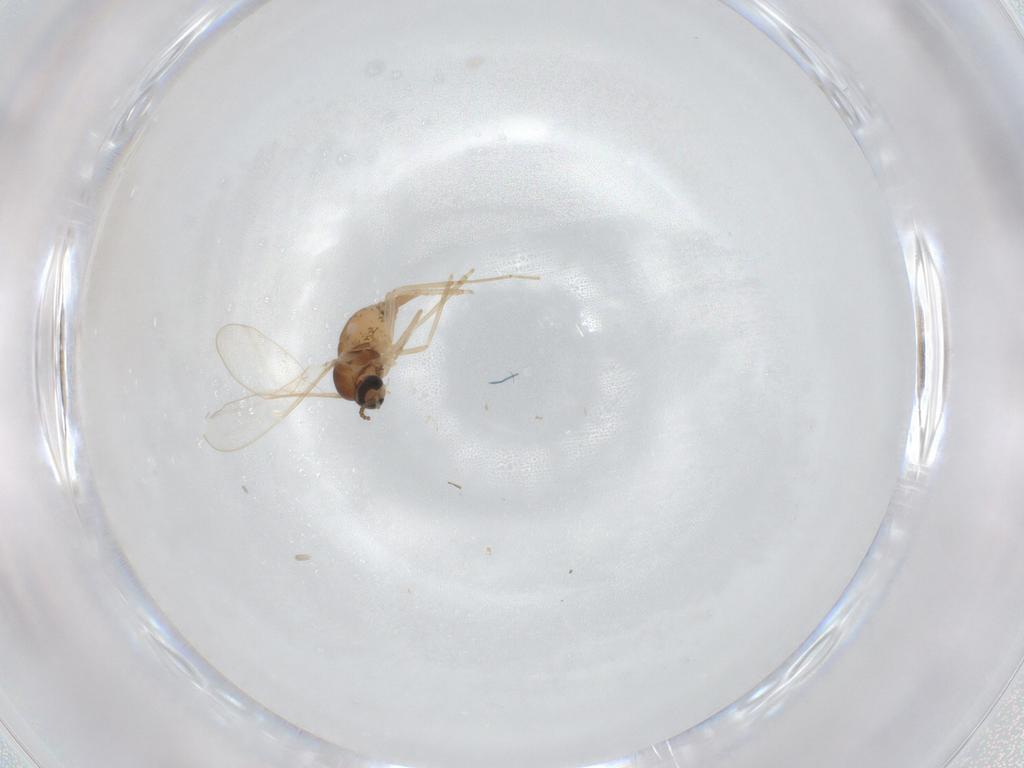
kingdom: Animalia
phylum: Arthropoda
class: Insecta
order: Diptera
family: Cecidomyiidae
